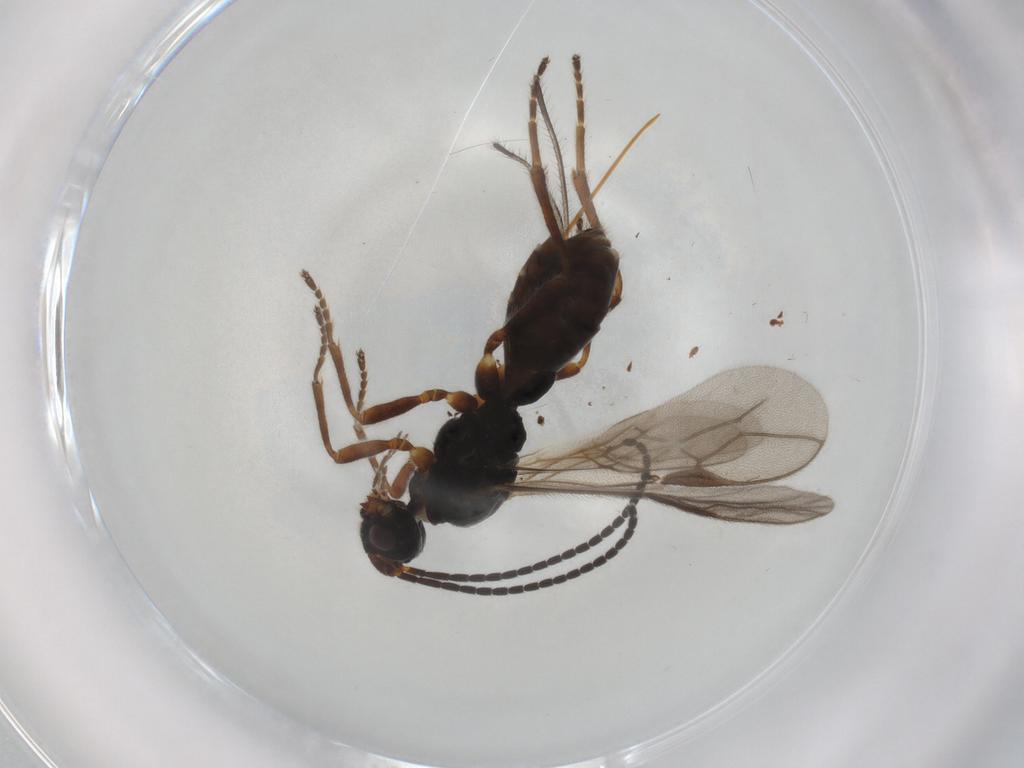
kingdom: Animalia
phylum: Arthropoda
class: Insecta
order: Hymenoptera
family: Braconidae
